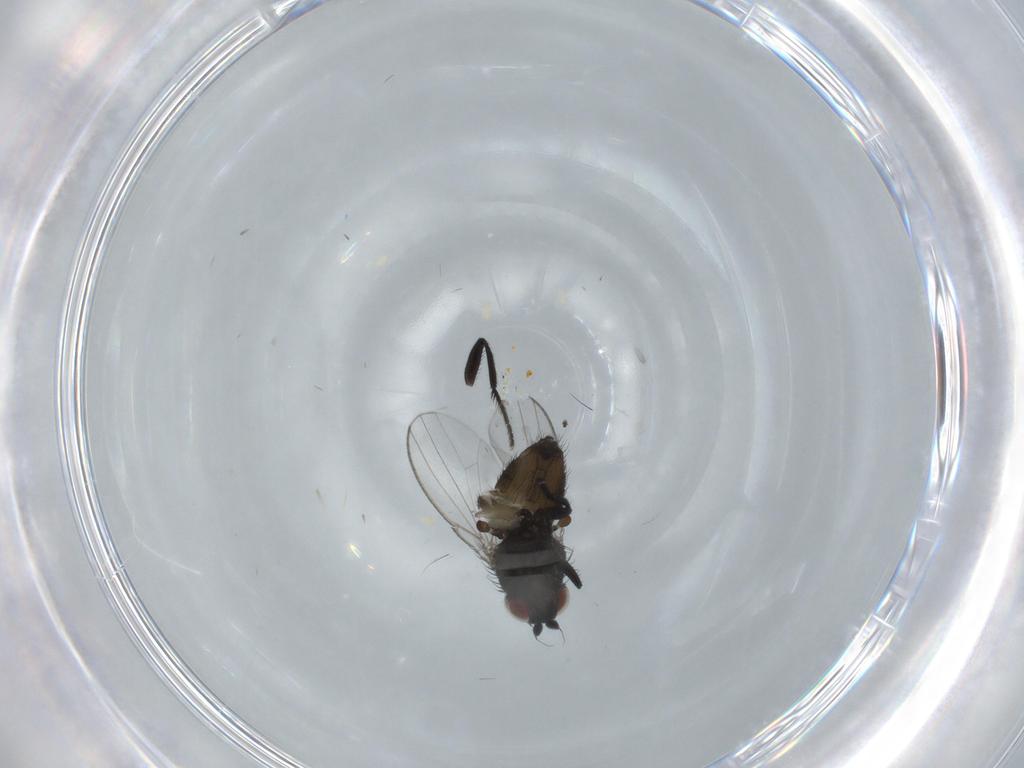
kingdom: Animalia
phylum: Arthropoda
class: Insecta
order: Diptera
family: Milichiidae
